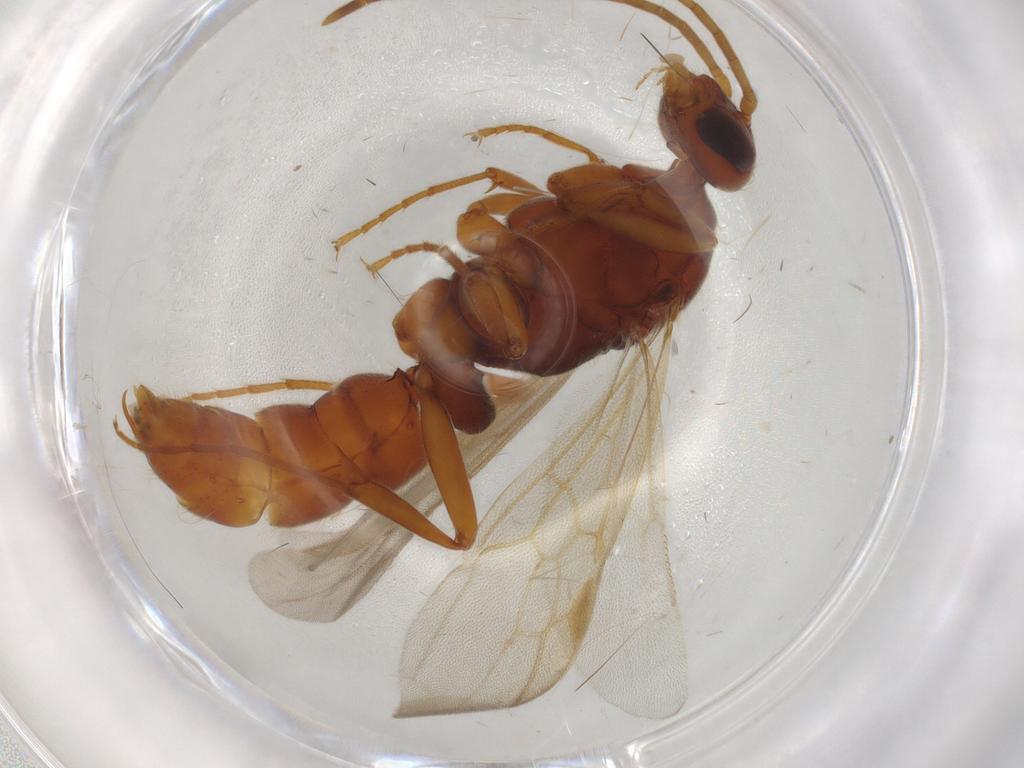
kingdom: Animalia
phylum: Arthropoda
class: Insecta
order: Hymenoptera
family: Formicidae
